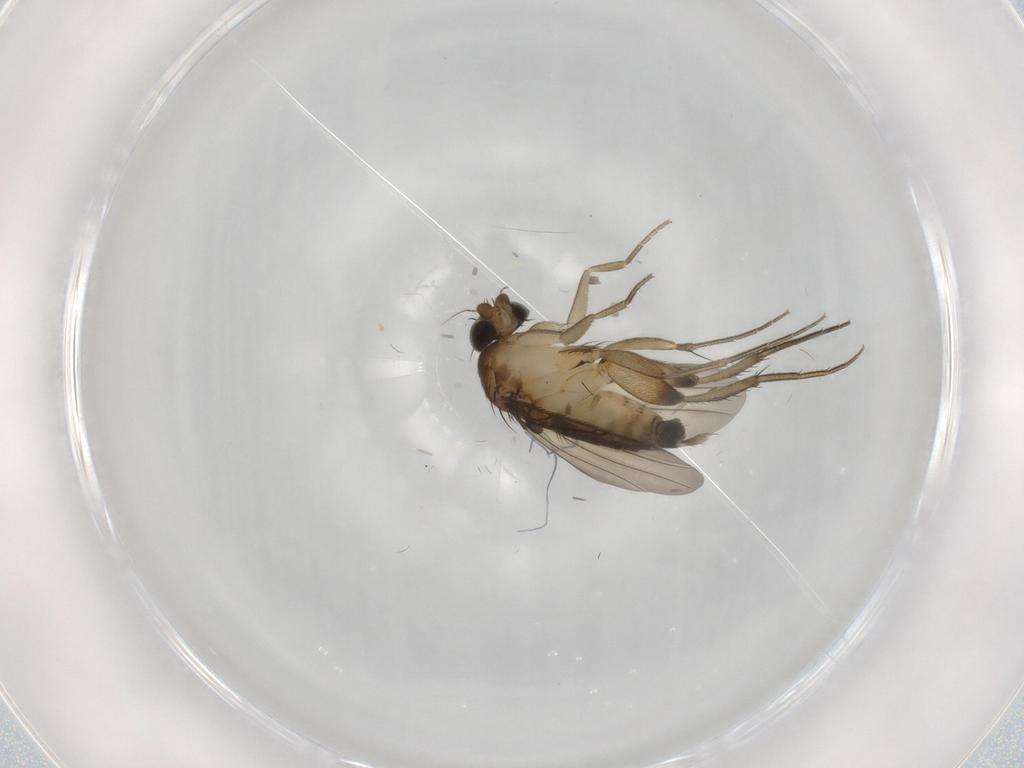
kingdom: Animalia
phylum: Arthropoda
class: Insecta
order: Diptera
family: Phoridae
